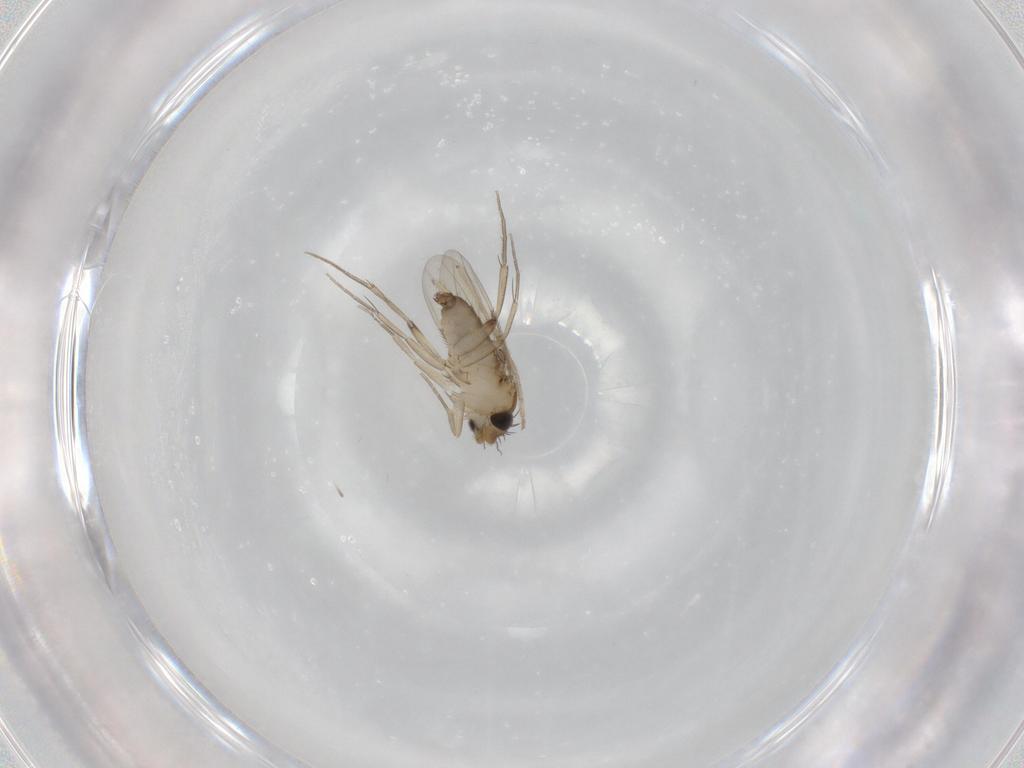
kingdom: Animalia
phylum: Arthropoda
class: Insecta
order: Diptera
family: Phoridae
